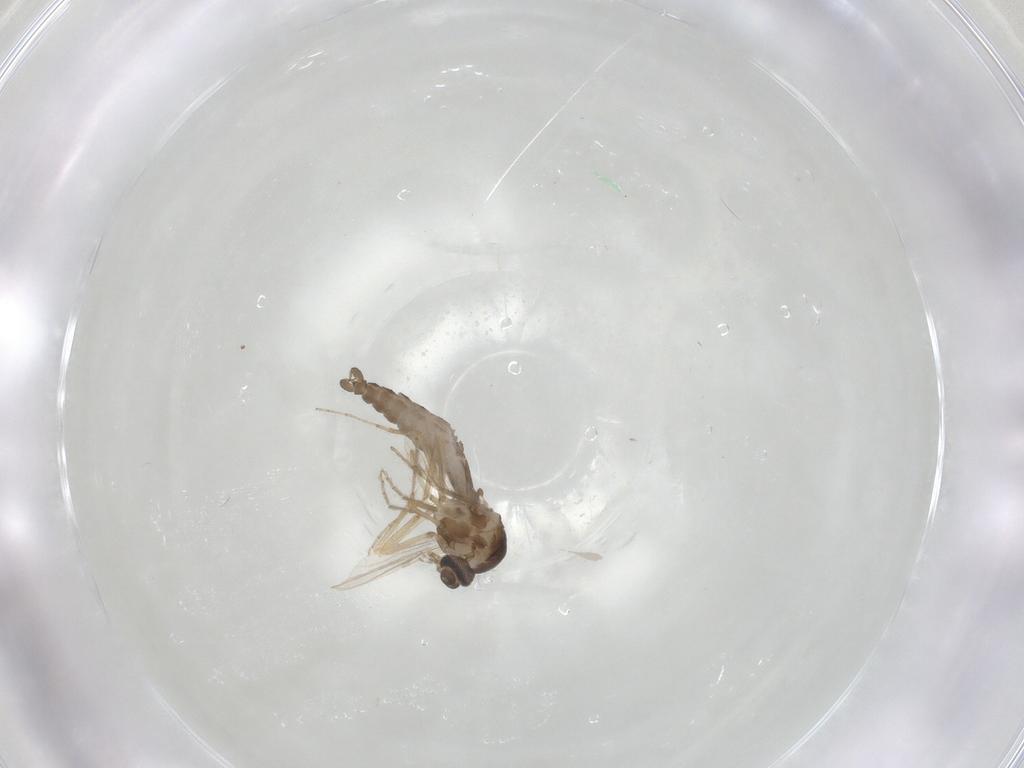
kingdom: Animalia
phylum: Arthropoda
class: Insecta
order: Diptera
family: Ceratopogonidae
